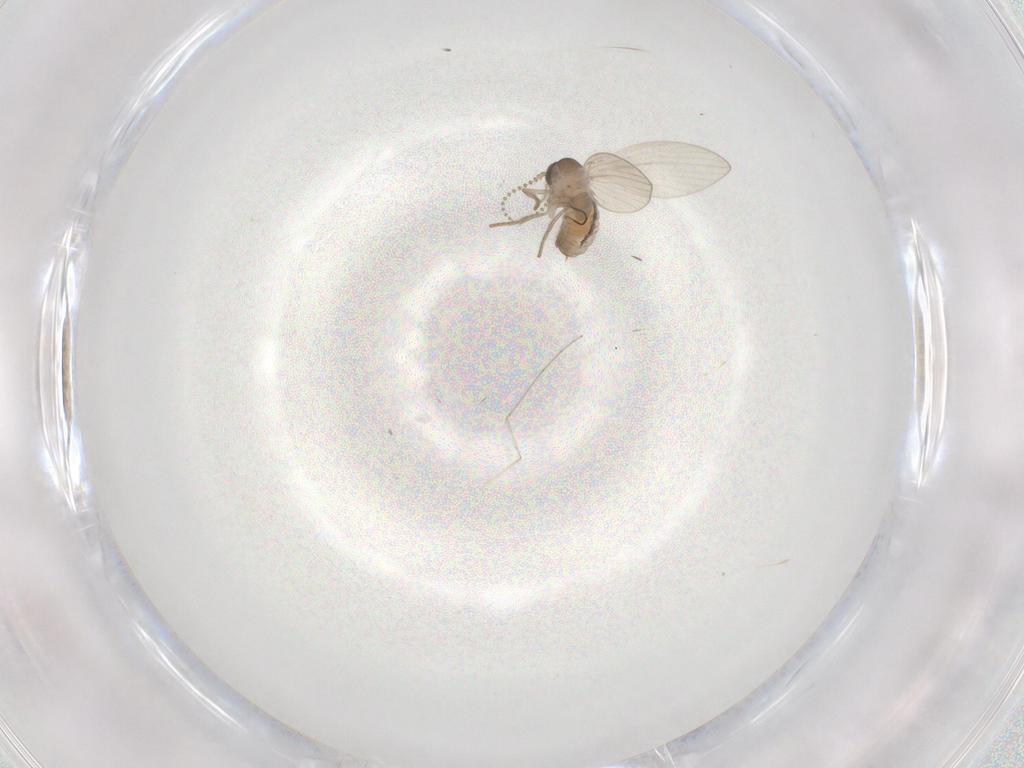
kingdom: Animalia
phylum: Arthropoda
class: Insecta
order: Diptera
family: Psychodidae
